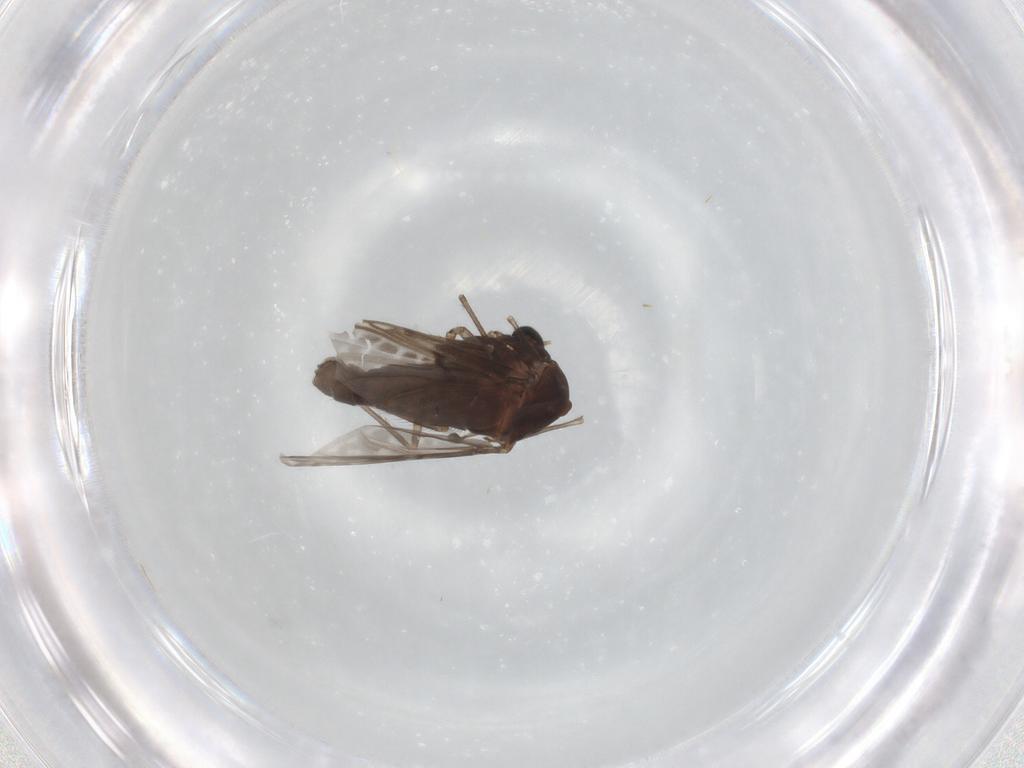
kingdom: Animalia
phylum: Arthropoda
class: Insecta
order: Diptera
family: Chironomidae
